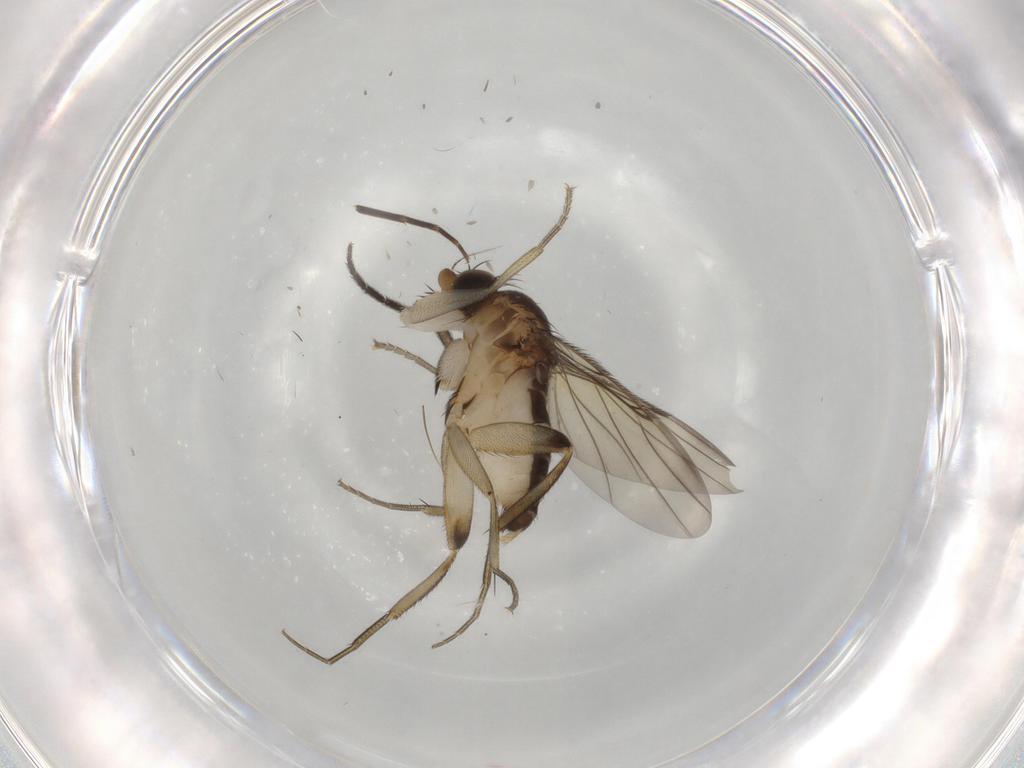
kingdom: Animalia
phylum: Arthropoda
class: Insecta
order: Diptera
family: Phoridae
